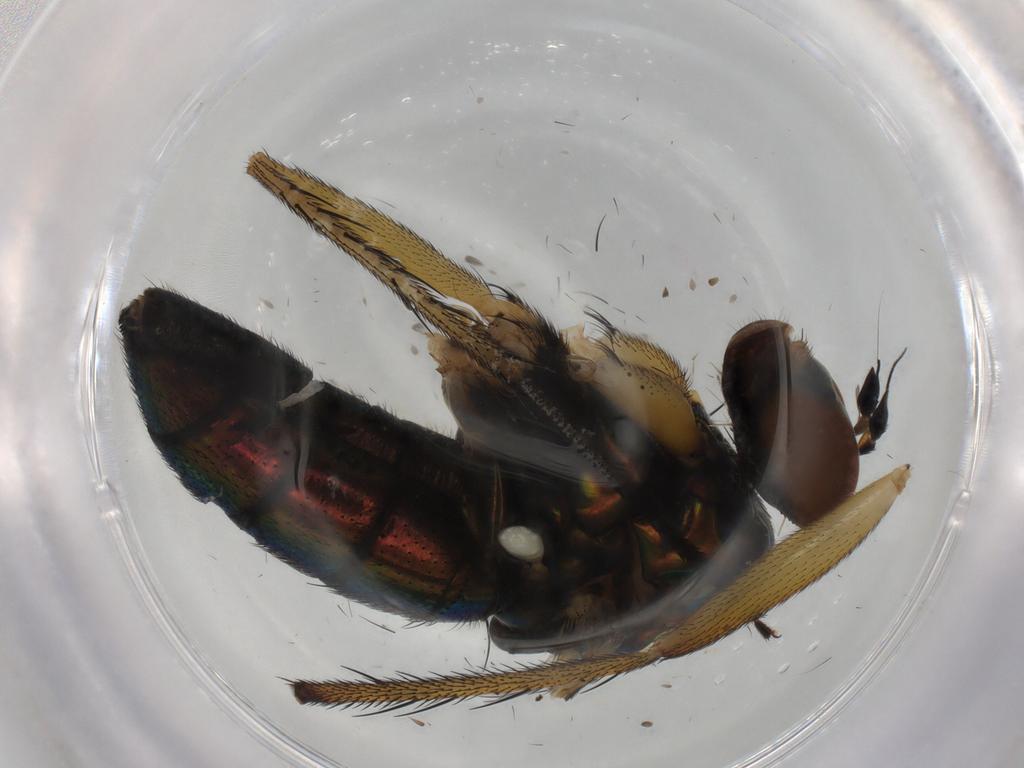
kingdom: Animalia
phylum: Arthropoda
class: Insecta
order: Diptera
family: Dolichopodidae
